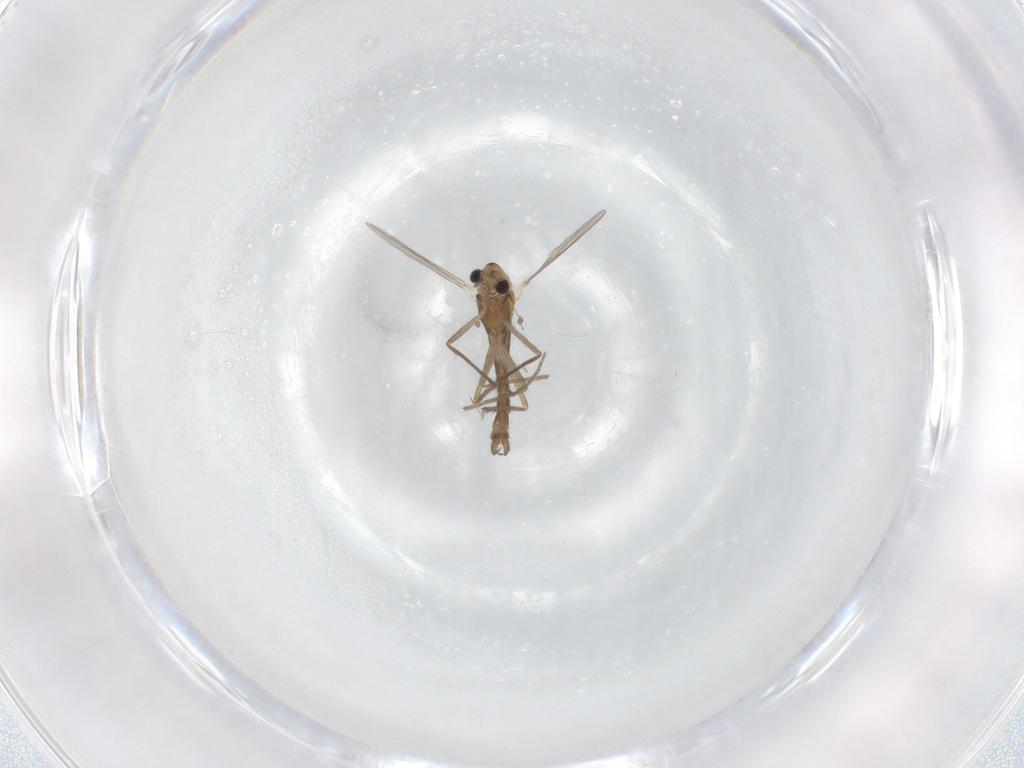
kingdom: Animalia
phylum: Arthropoda
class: Insecta
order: Diptera
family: Chironomidae
